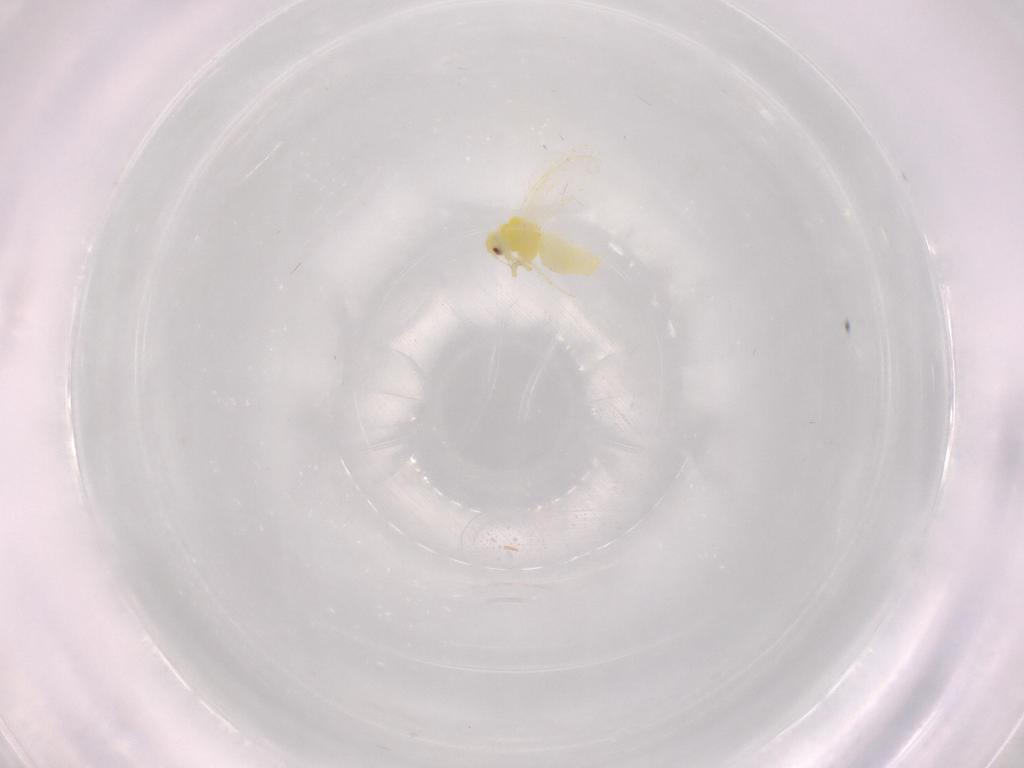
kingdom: Animalia
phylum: Arthropoda
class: Insecta
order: Hemiptera
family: Aleyrodidae
